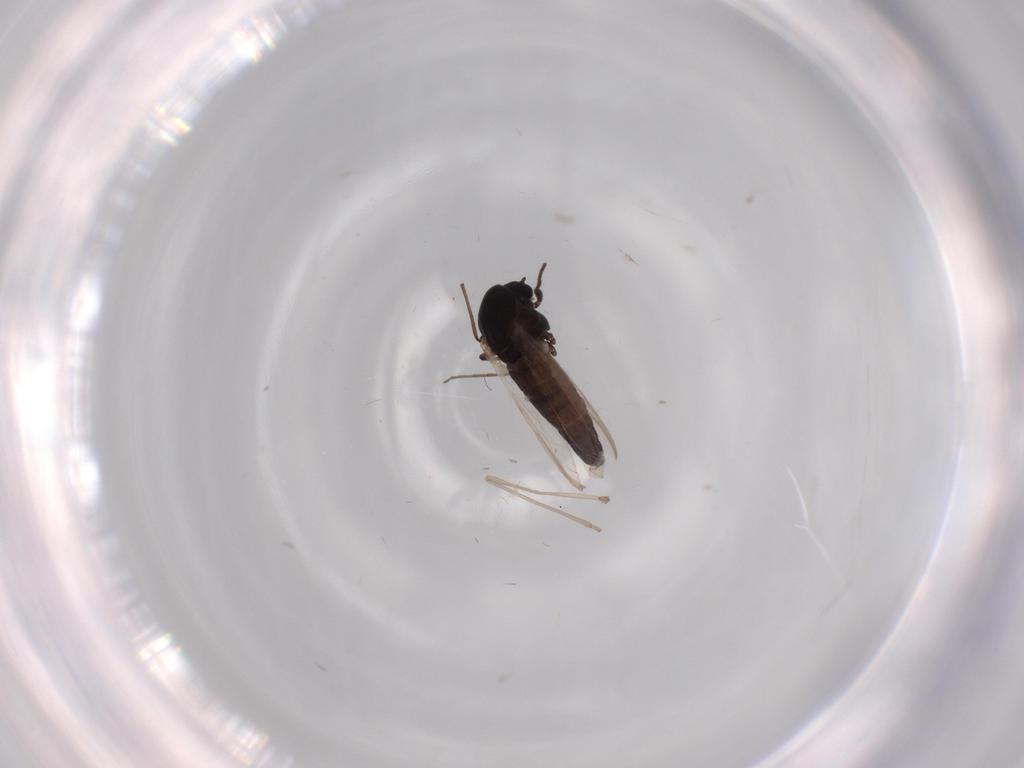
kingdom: Animalia
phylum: Arthropoda
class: Insecta
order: Diptera
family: Chironomidae
